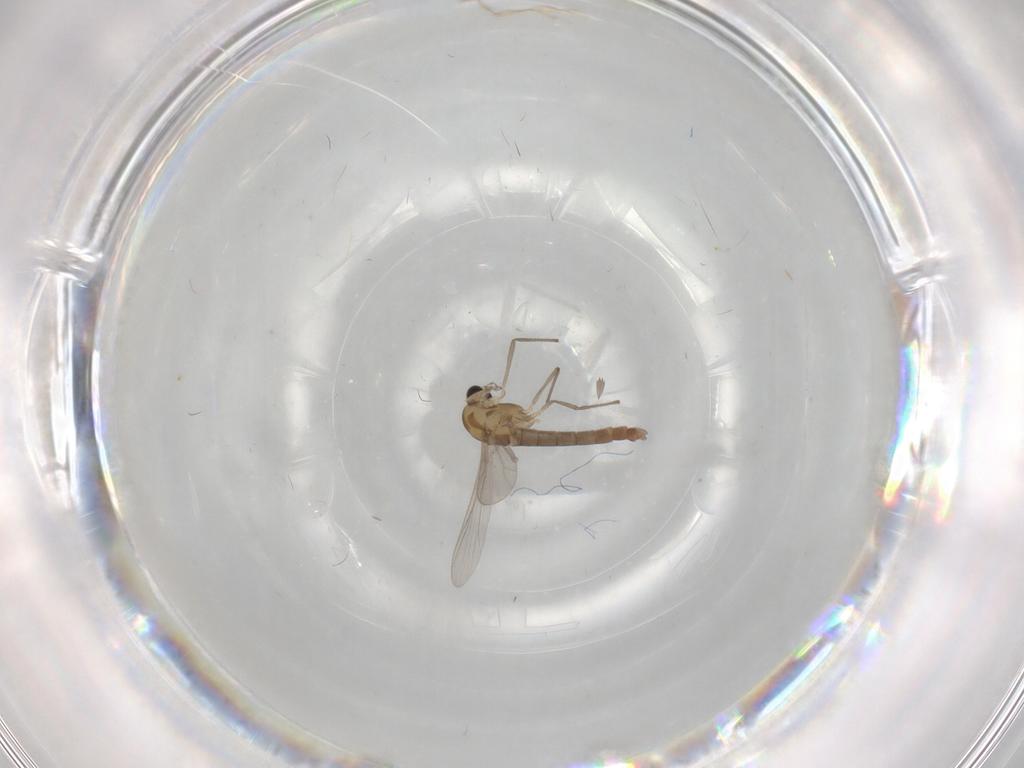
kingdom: Animalia
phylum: Arthropoda
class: Insecta
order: Diptera
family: Chironomidae
